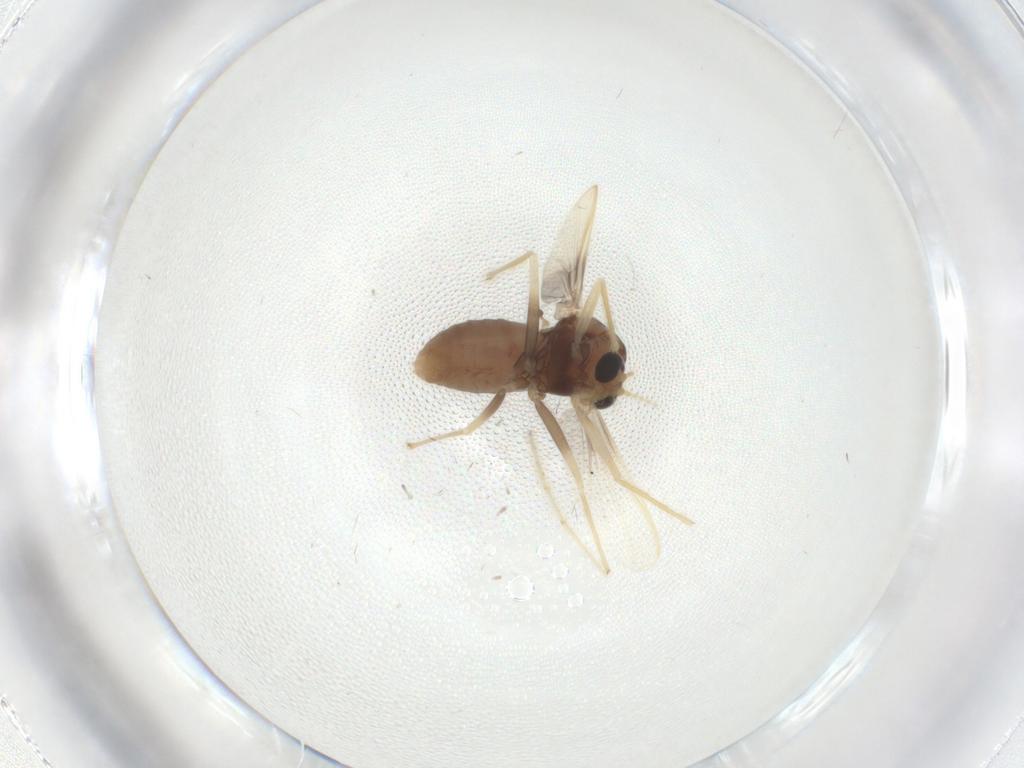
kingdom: Animalia
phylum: Arthropoda
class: Insecta
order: Diptera
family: Chironomidae
